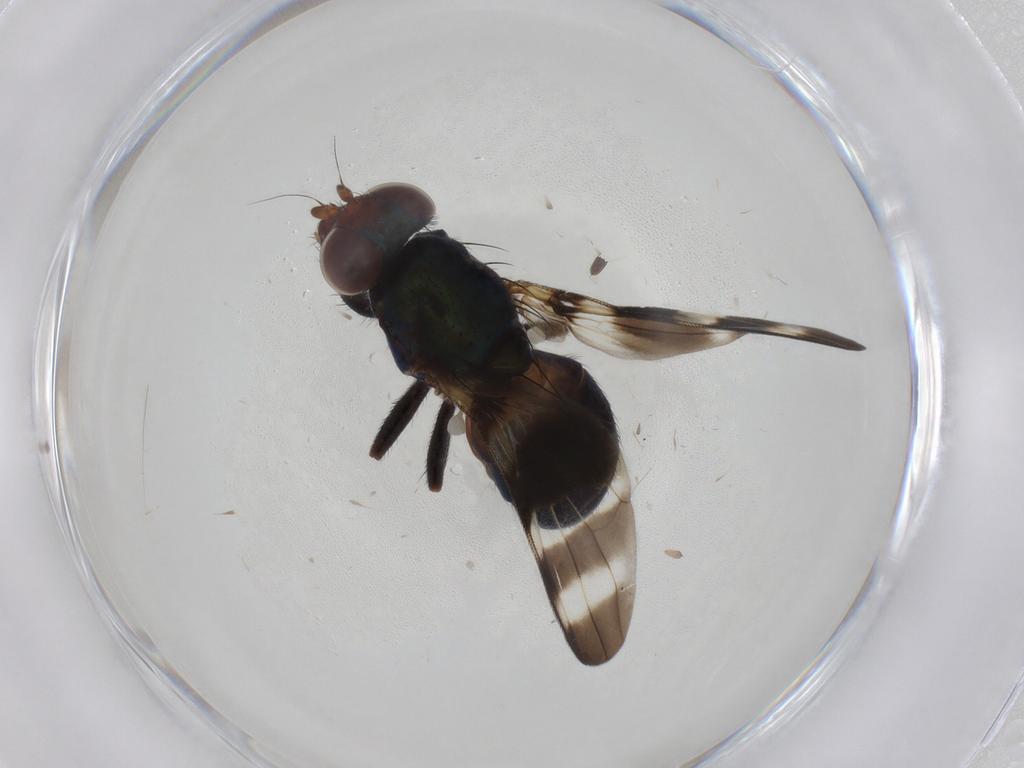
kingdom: Animalia
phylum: Arthropoda
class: Insecta
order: Diptera
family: Ulidiidae
